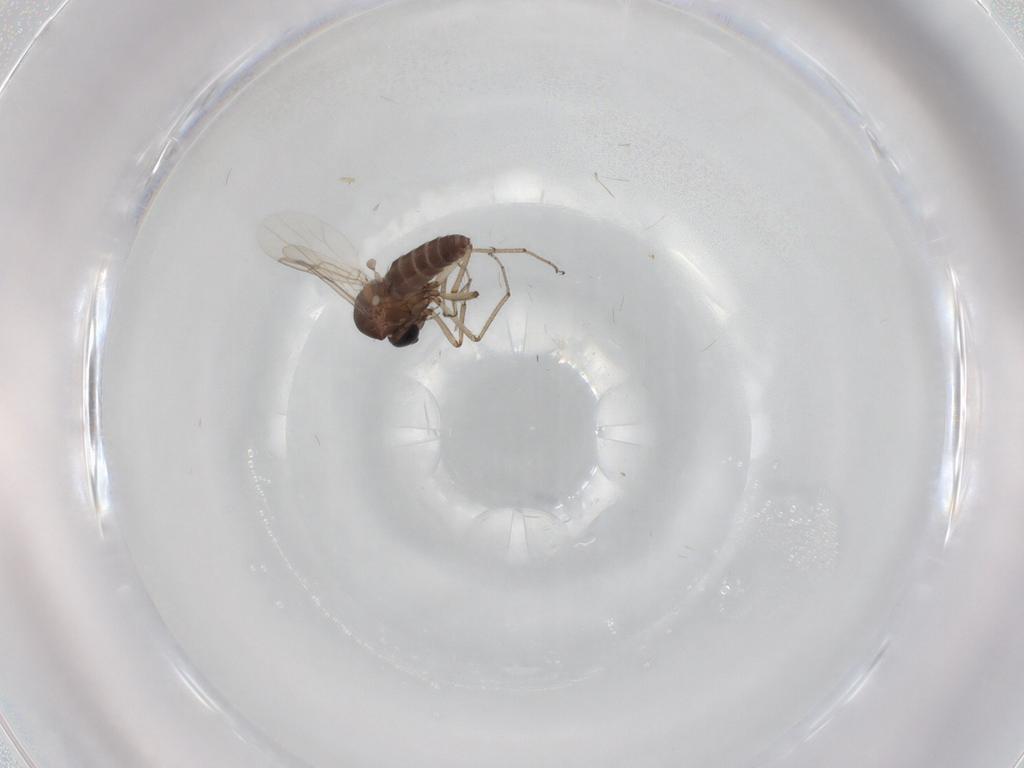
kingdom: Animalia
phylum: Arthropoda
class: Insecta
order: Diptera
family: Ceratopogonidae
